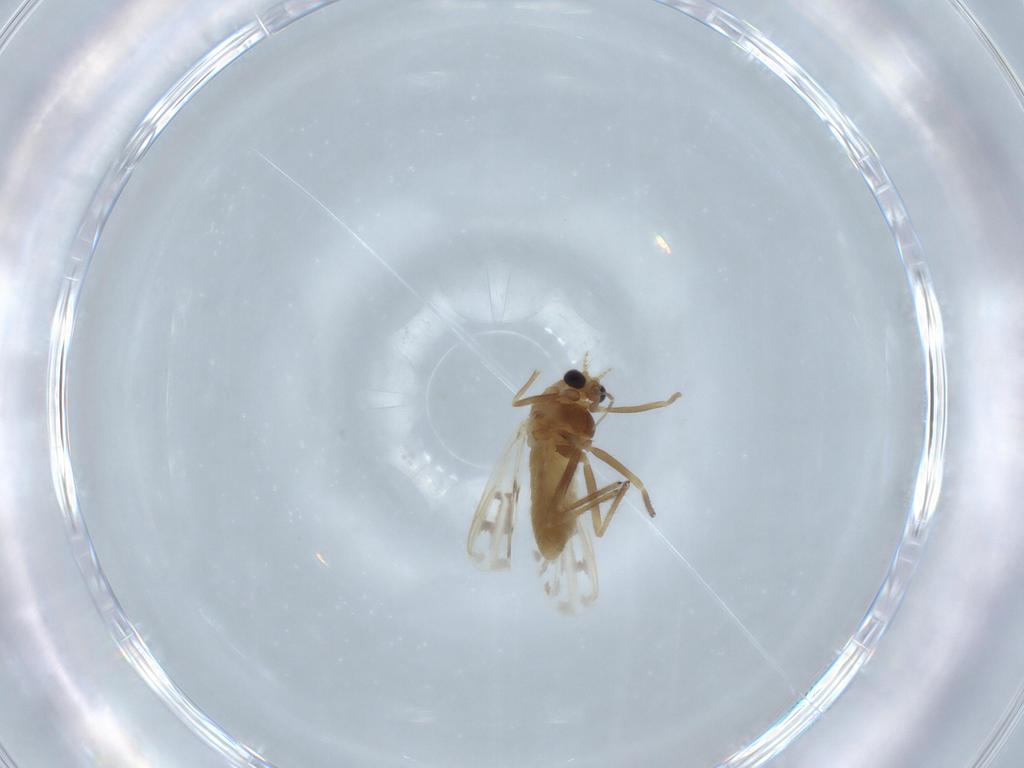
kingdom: Animalia
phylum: Arthropoda
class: Insecta
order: Diptera
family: Chironomidae
